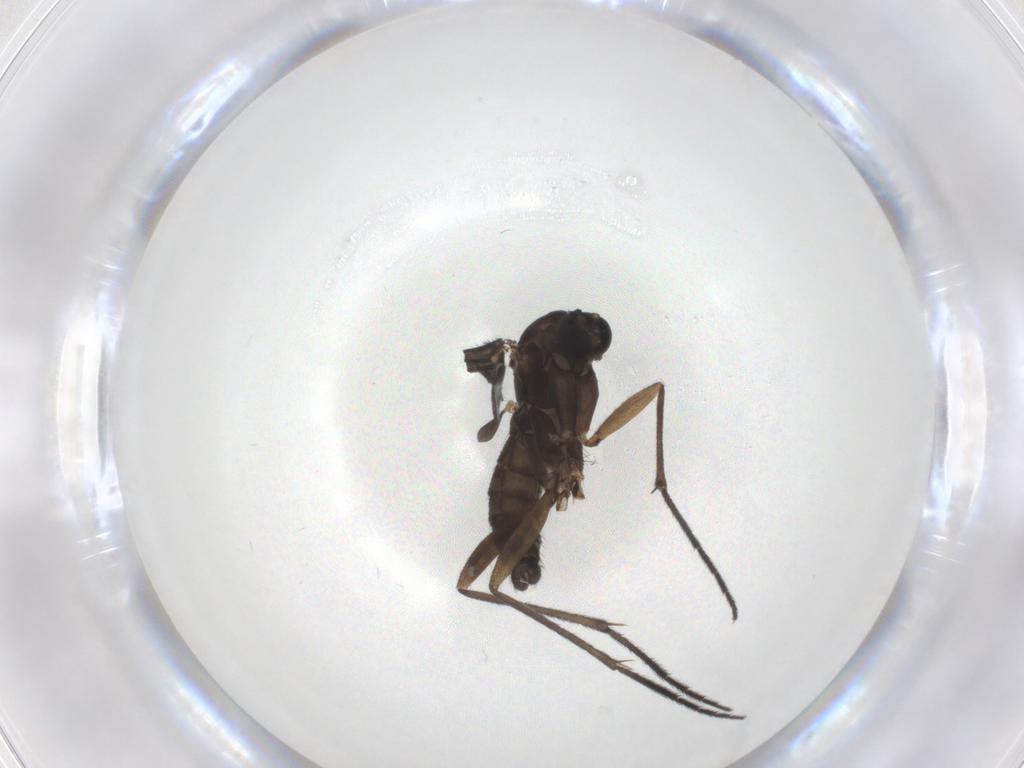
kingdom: Animalia
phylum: Arthropoda
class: Insecta
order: Diptera
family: Sciaridae
